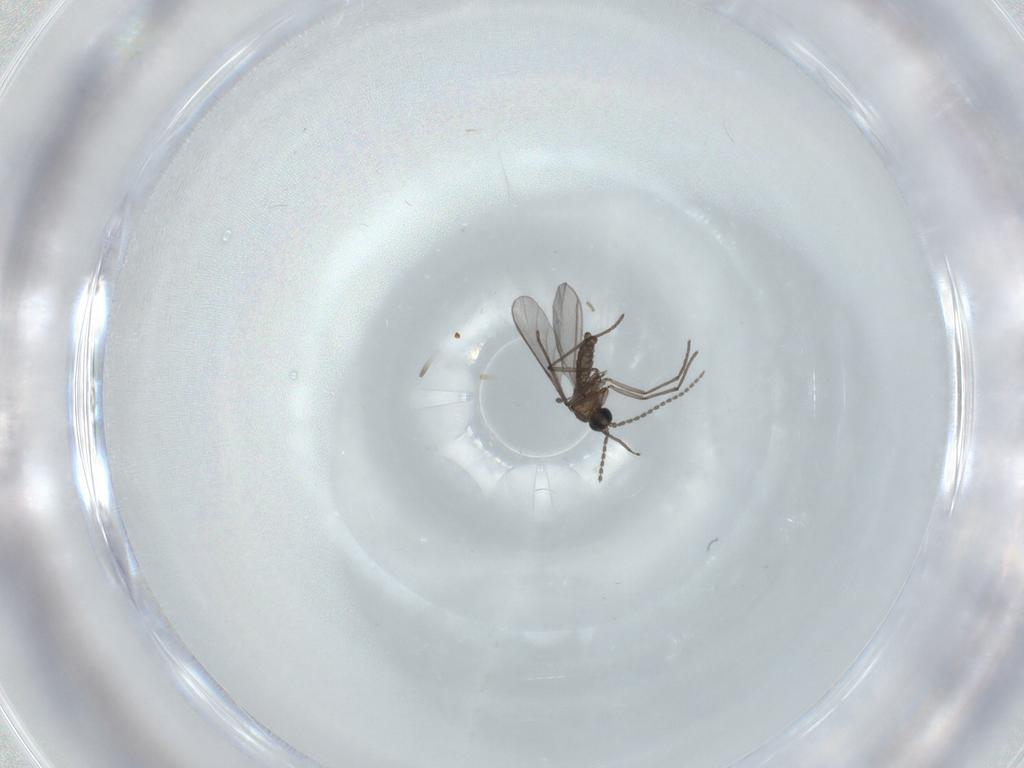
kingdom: Animalia
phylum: Arthropoda
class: Insecta
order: Diptera
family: Sciaridae
